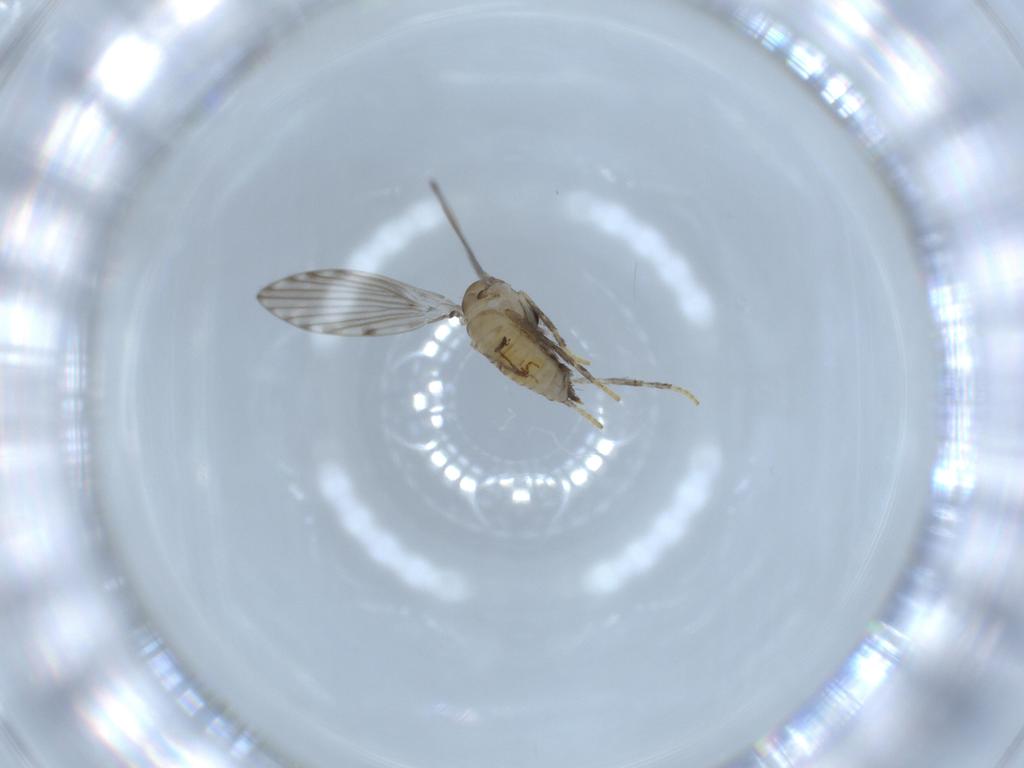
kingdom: Animalia
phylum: Arthropoda
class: Insecta
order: Diptera
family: Psychodidae
